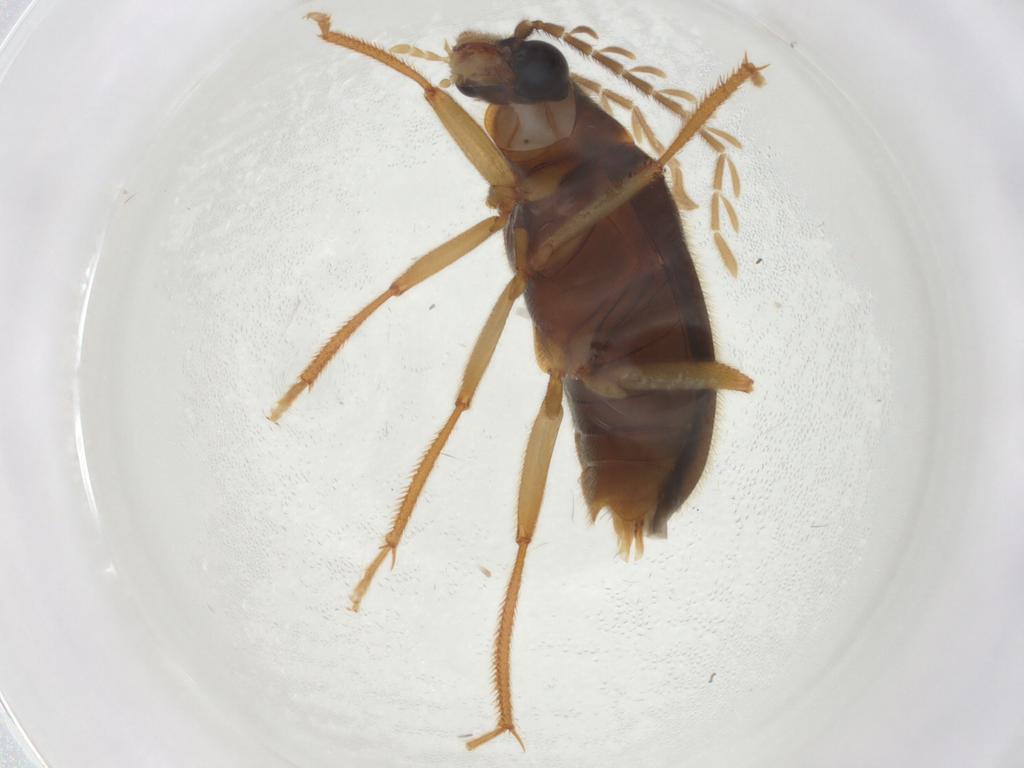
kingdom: Animalia
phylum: Arthropoda
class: Insecta
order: Coleoptera
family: Ptilodactylidae
